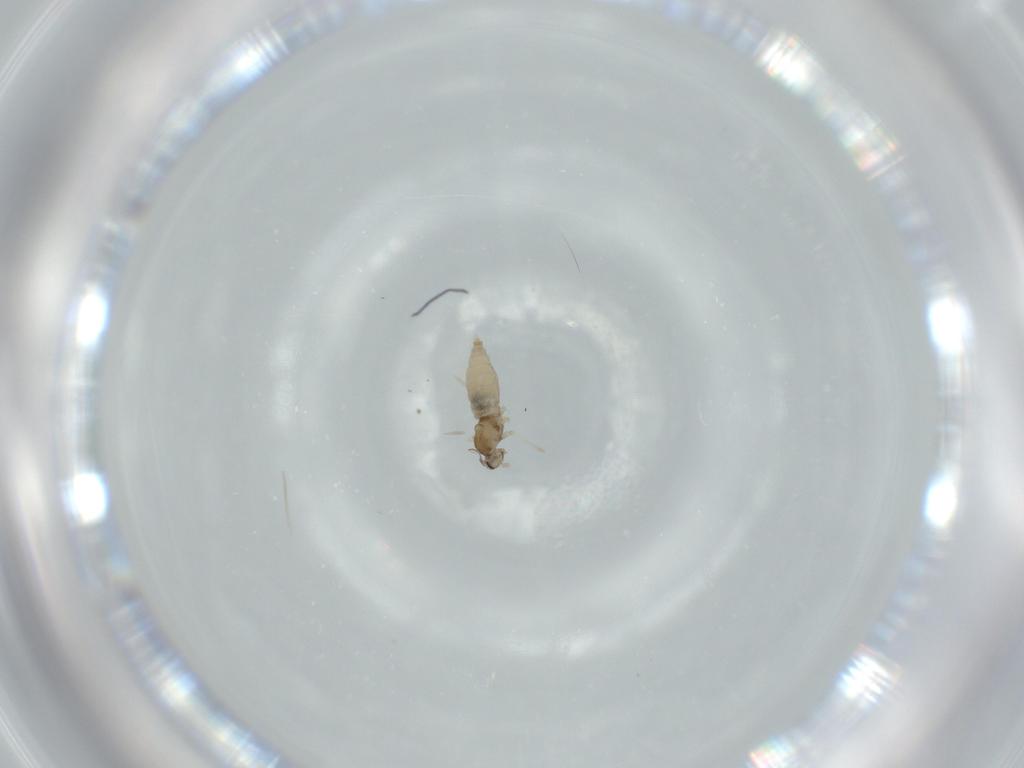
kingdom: Animalia
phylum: Arthropoda
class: Insecta
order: Diptera
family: Cecidomyiidae
